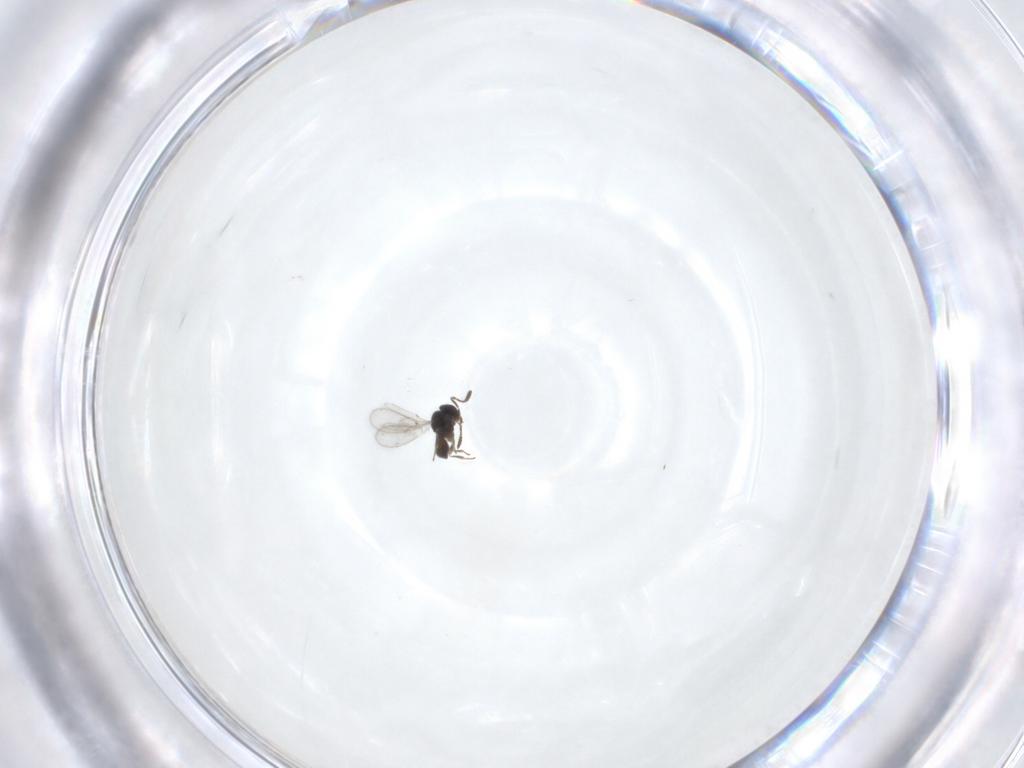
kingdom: Animalia
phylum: Arthropoda
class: Insecta
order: Hymenoptera
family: Scelionidae
